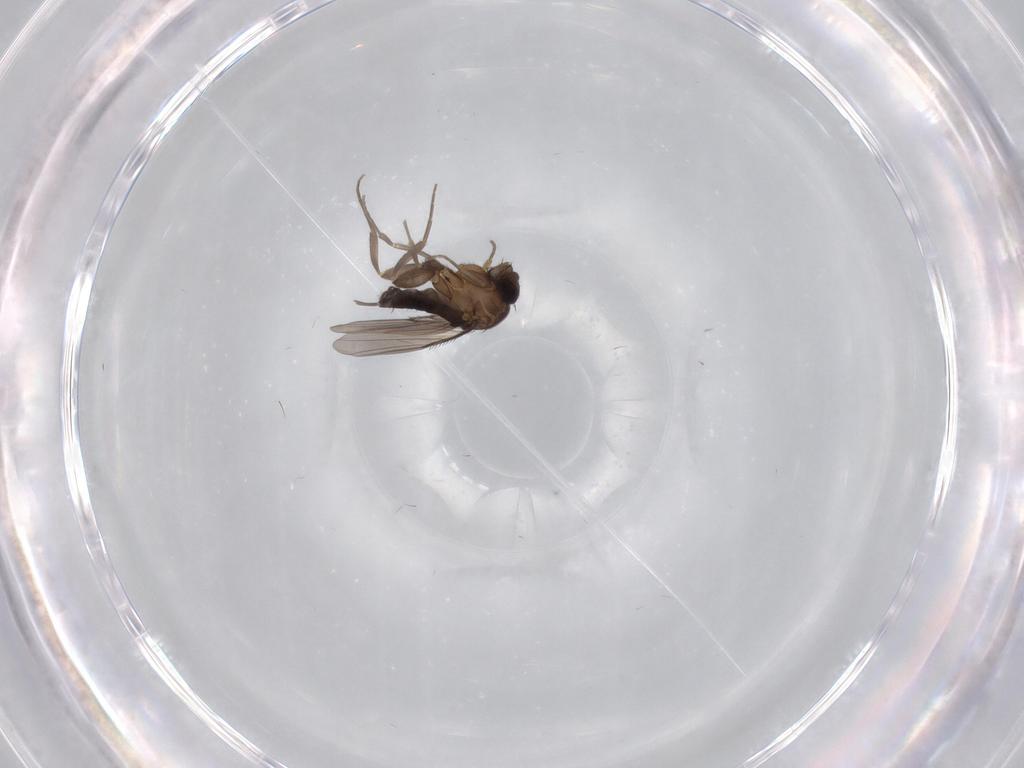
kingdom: Animalia
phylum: Arthropoda
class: Insecta
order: Diptera
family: Phoridae
